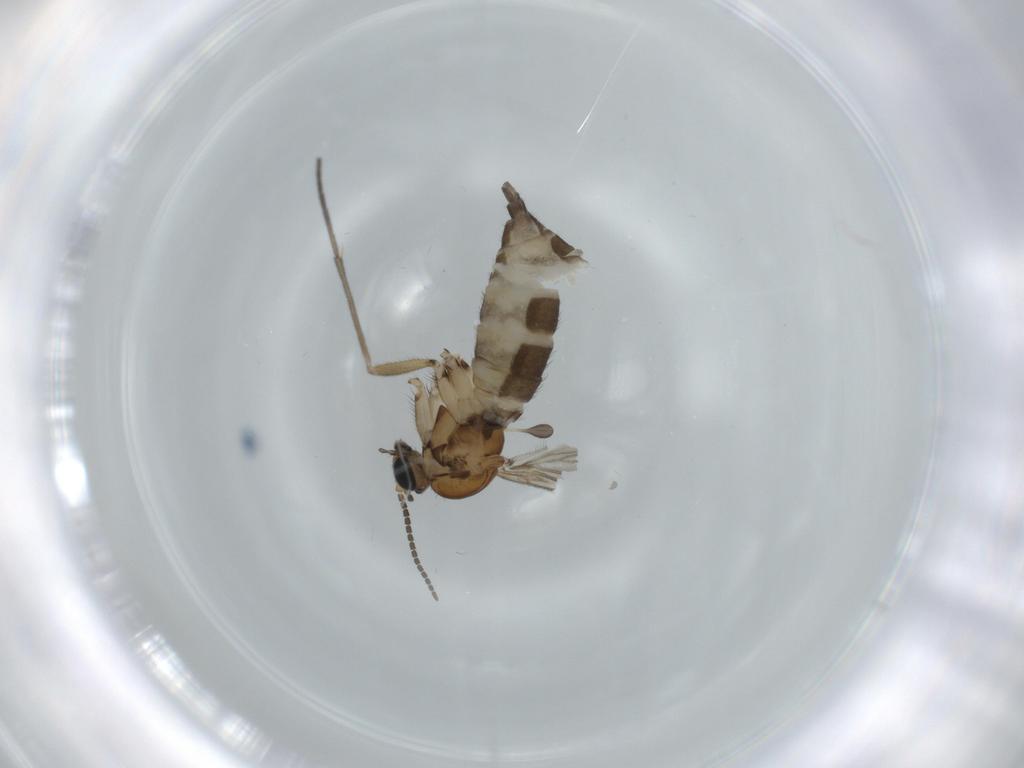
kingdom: Animalia
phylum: Arthropoda
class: Insecta
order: Diptera
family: Sciaridae
